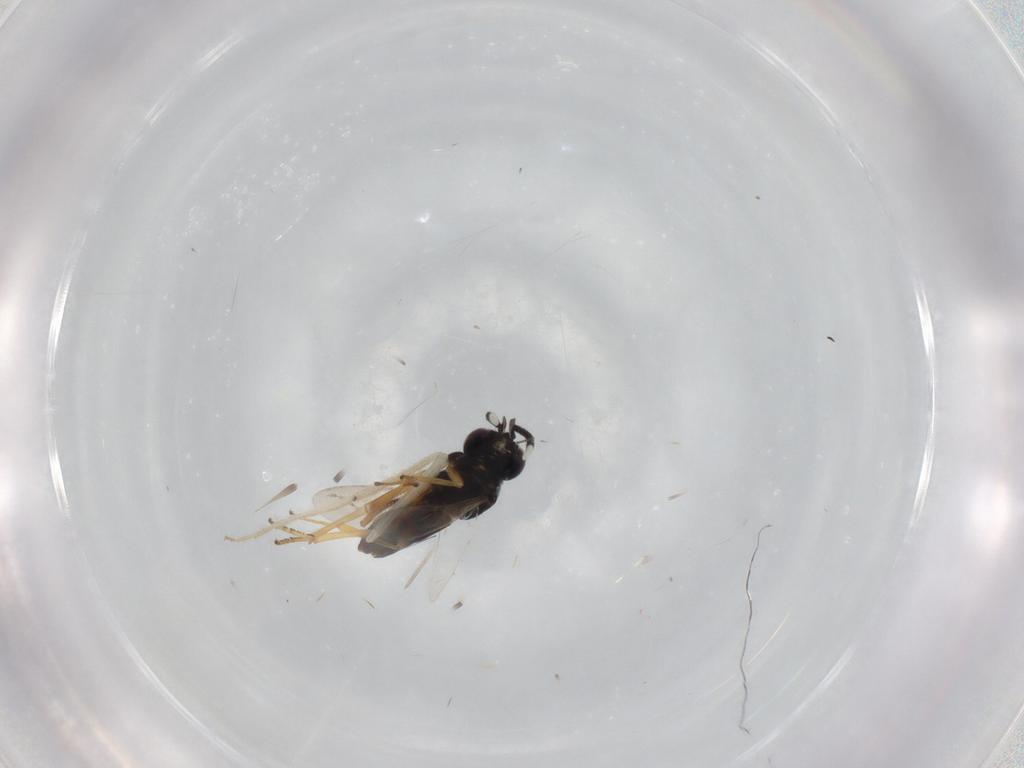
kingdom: Animalia
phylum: Arthropoda
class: Insecta
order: Hymenoptera
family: Encyrtidae
